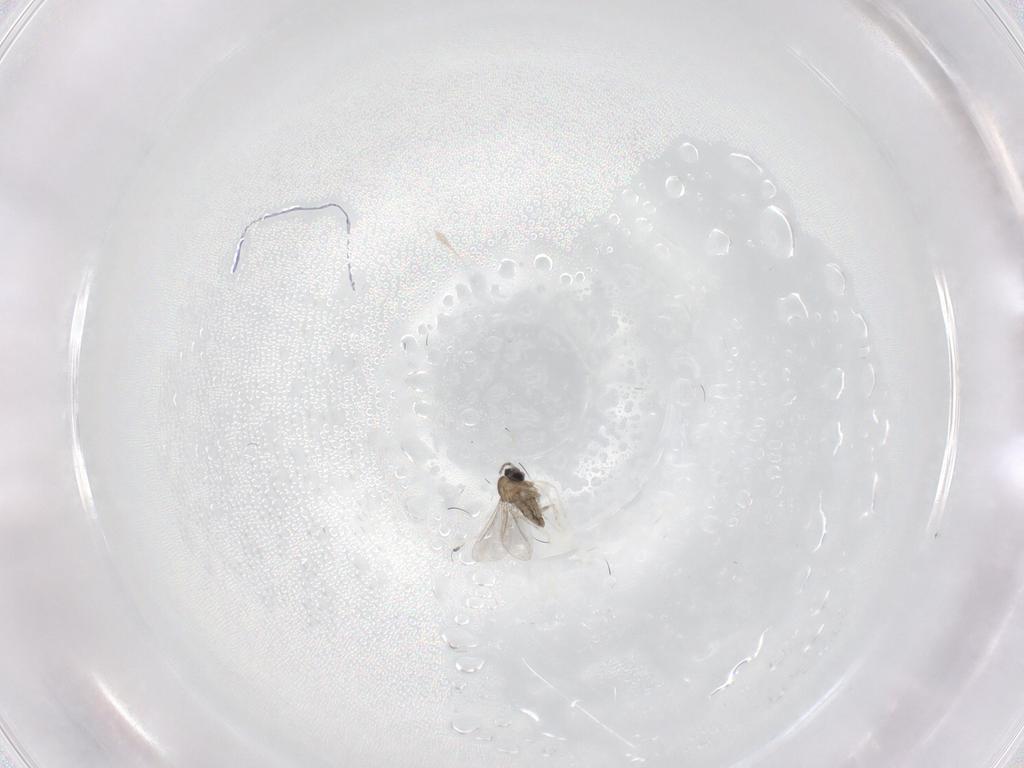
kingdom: Animalia
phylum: Arthropoda
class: Insecta
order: Diptera
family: Cecidomyiidae
